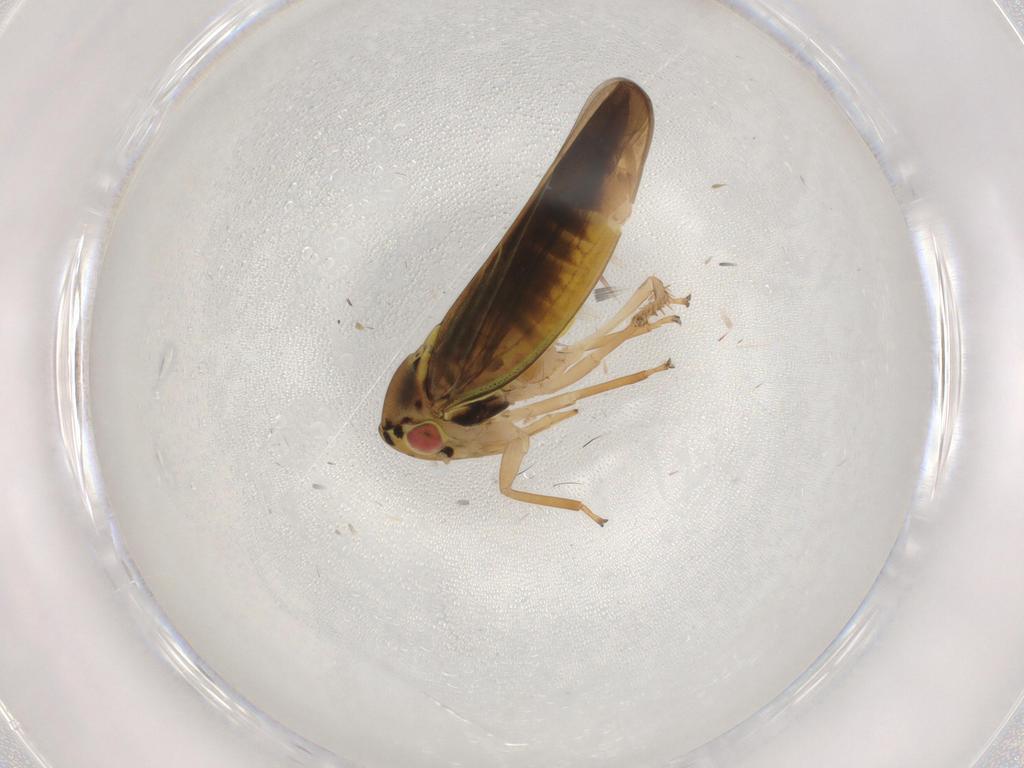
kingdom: Animalia
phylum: Arthropoda
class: Insecta
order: Hemiptera
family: Cicadellidae
